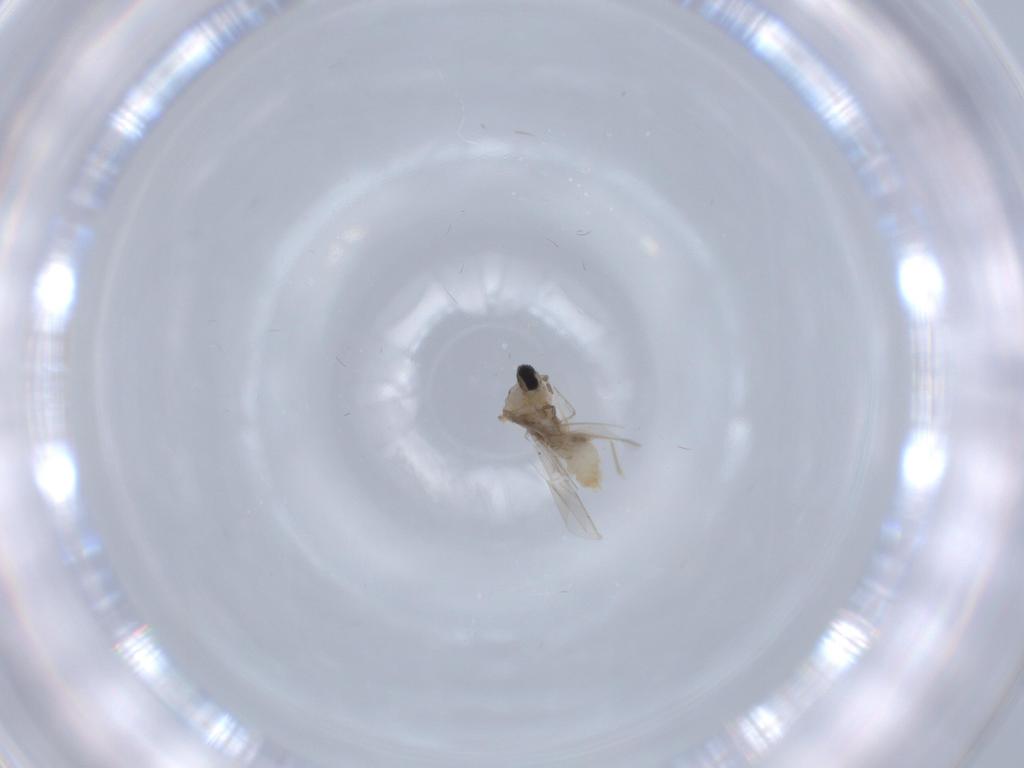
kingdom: Animalia
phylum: Arthropoda
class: Insecta
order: Diptera
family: Cecidomyiidae
